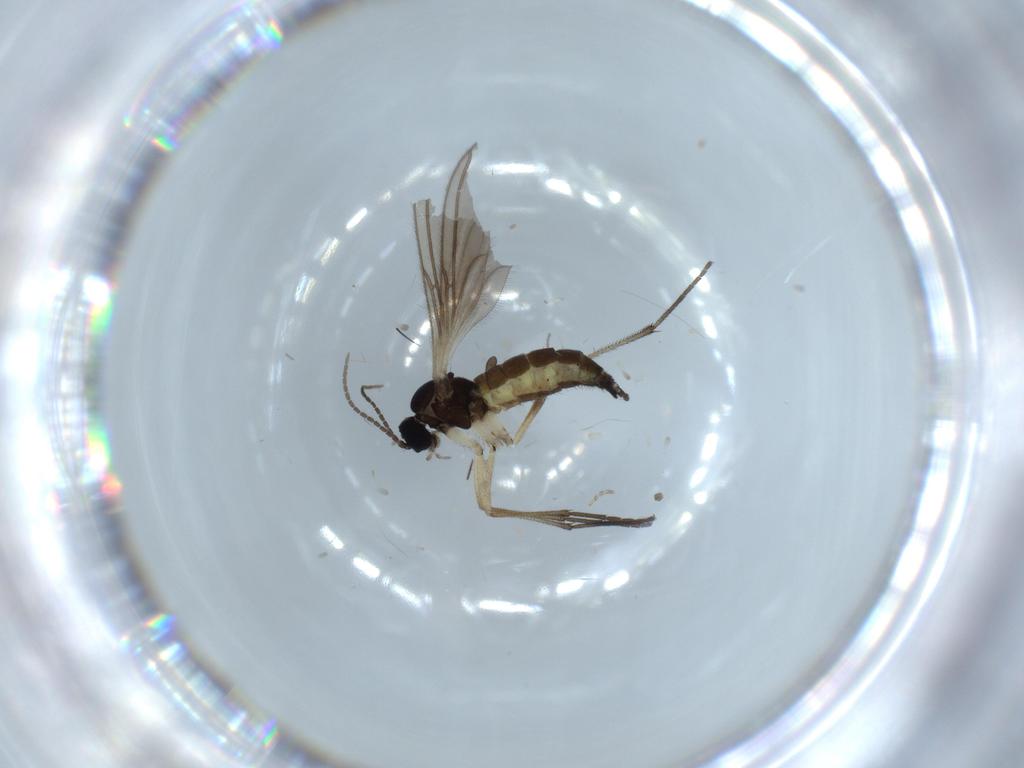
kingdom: Animalia
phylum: Arthropoda
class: Insecta
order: Diptera
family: Sciaridae
